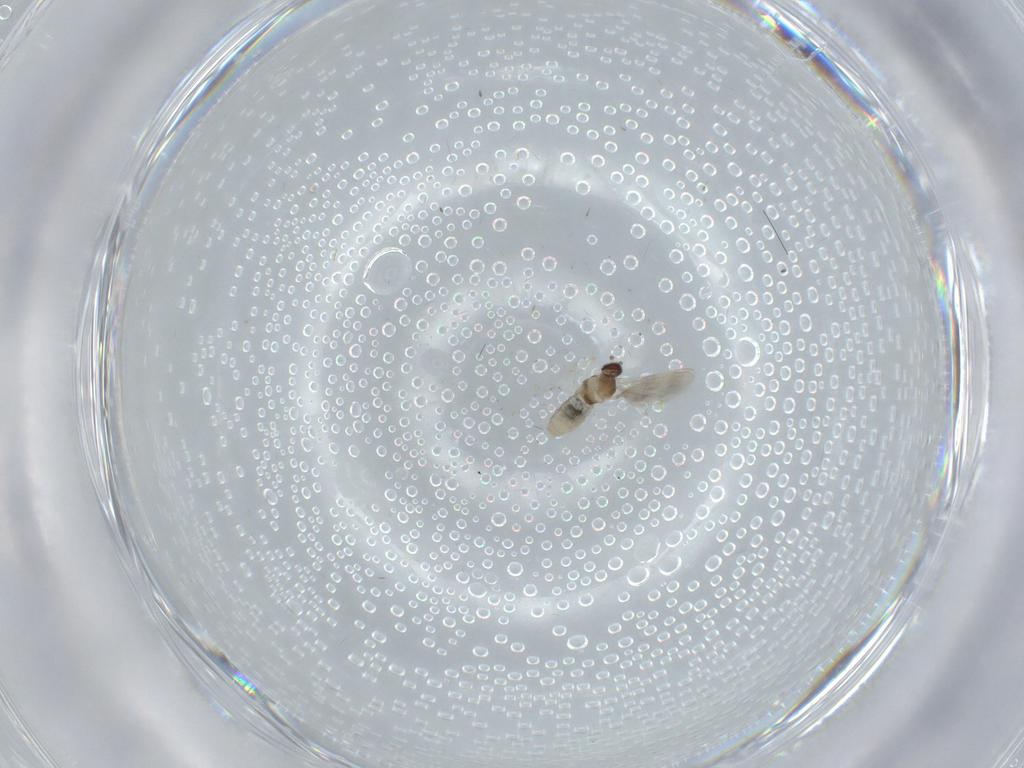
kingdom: Animalia
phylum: Arthropoda
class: Insecta
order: Diptera
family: Cecidomyiidae
